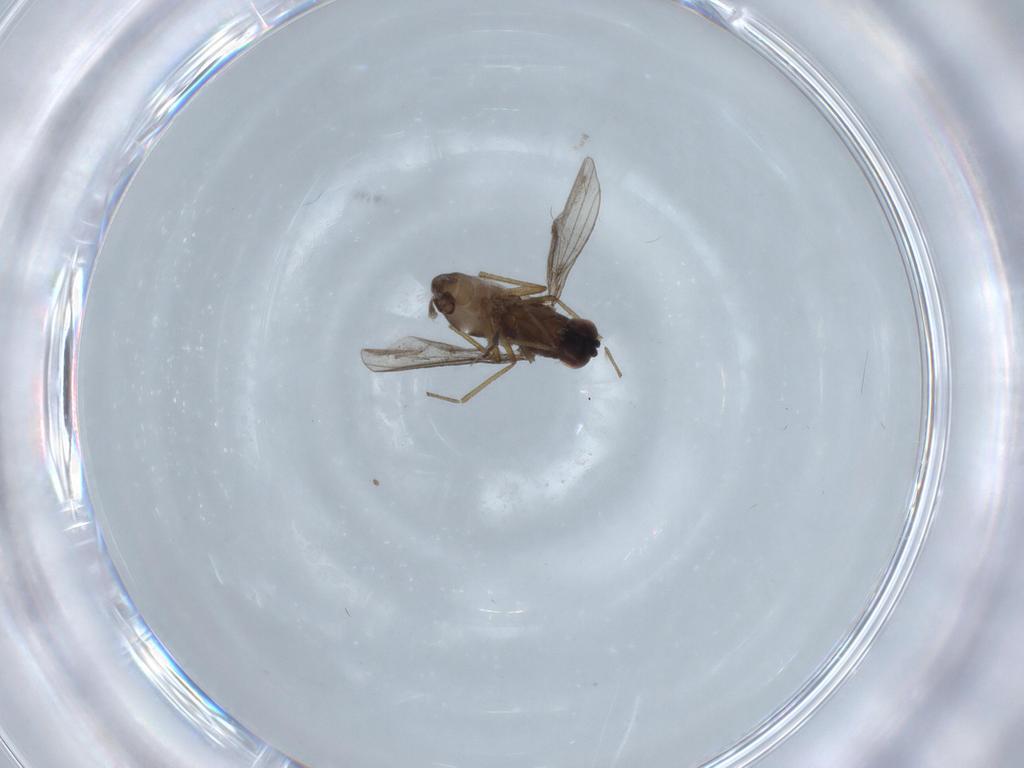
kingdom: Animalia
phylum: Arthropoda
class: Insecta
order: Diptera
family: Dolichopodidae
